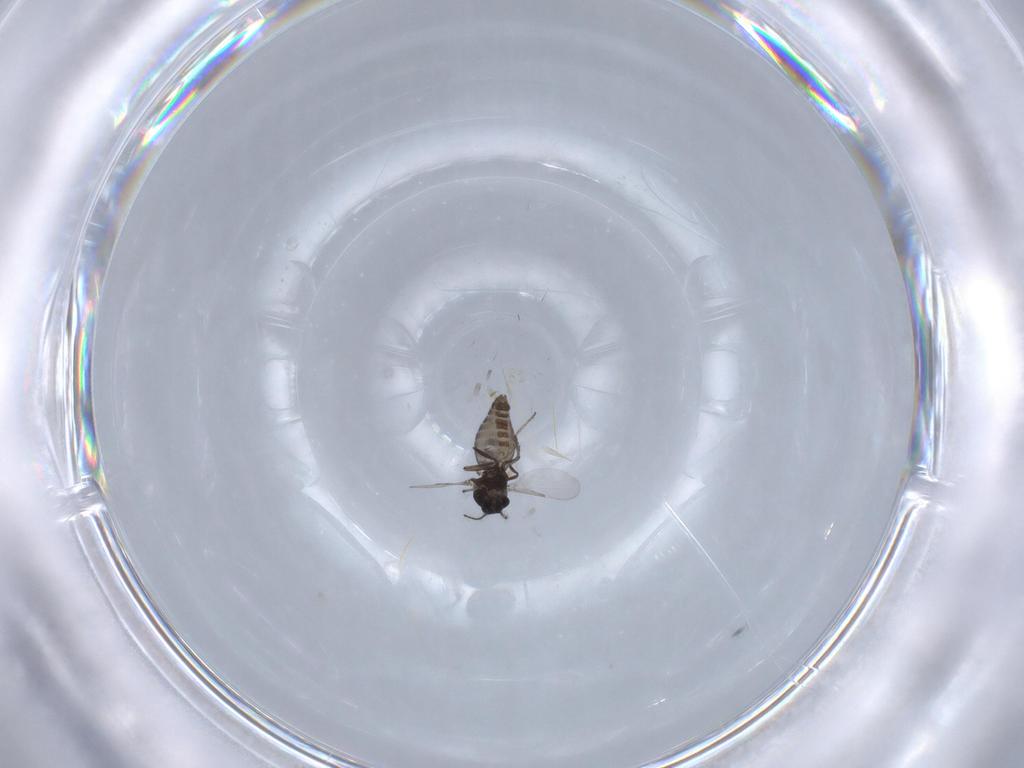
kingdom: Animalia
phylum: Arthropoda
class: Insecta
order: Diptera
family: Ceratopogonidae
